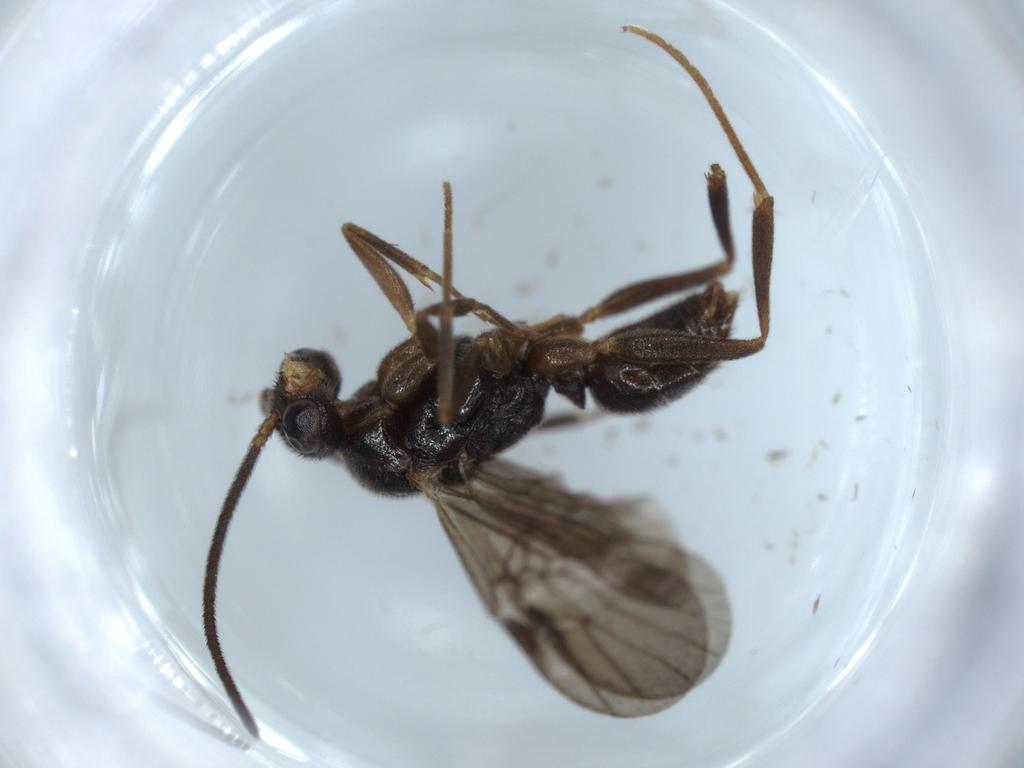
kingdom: Animalia
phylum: Arthropoda
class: Insecta
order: Hymenoptera
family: Formicidae
